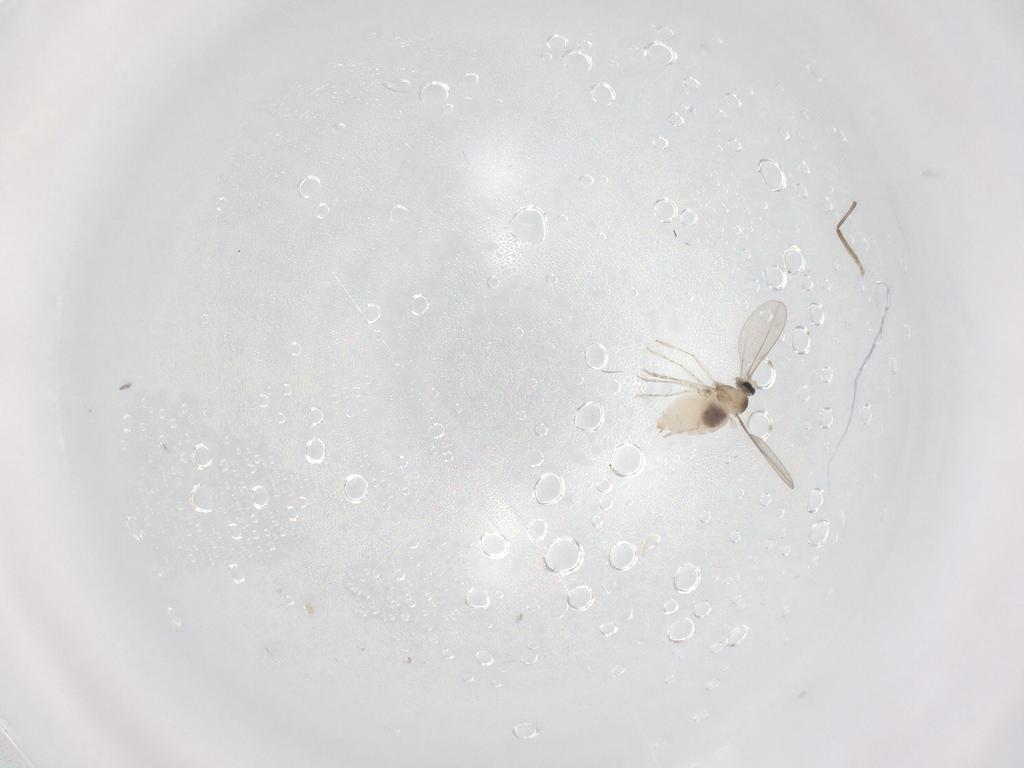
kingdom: Animalia
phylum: Arthropoda
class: Insecta
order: Diptera
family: Cecidomyiidae
